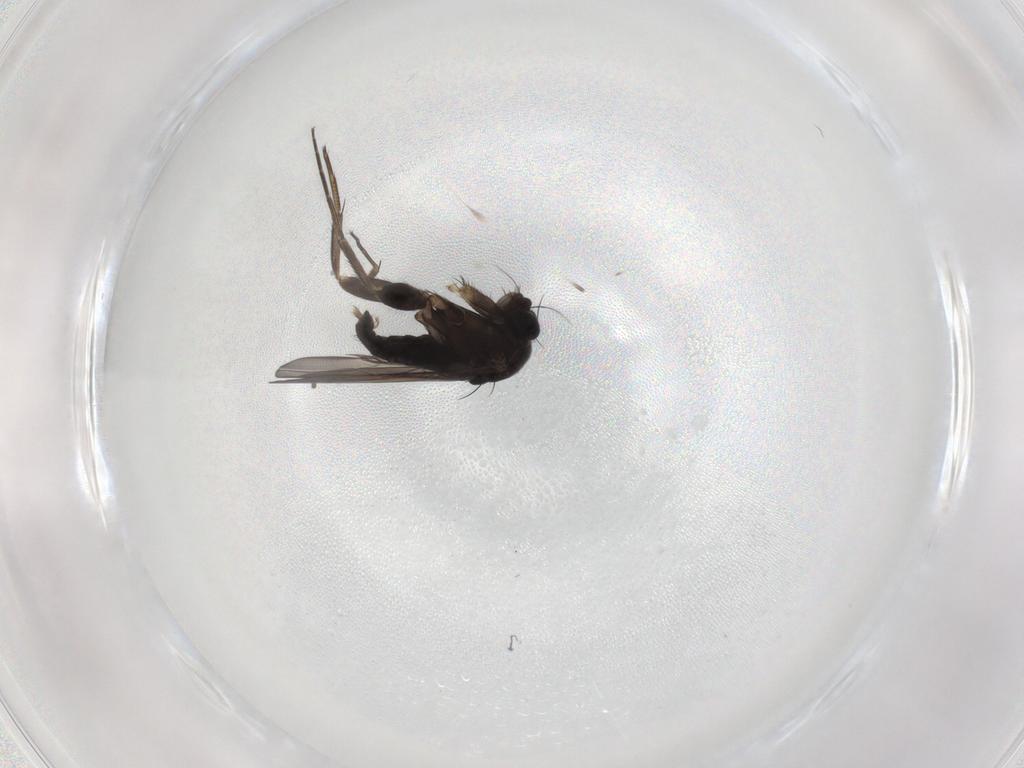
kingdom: Animalia
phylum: Arthropoda
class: Insecta
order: Diptera
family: Phoridae
